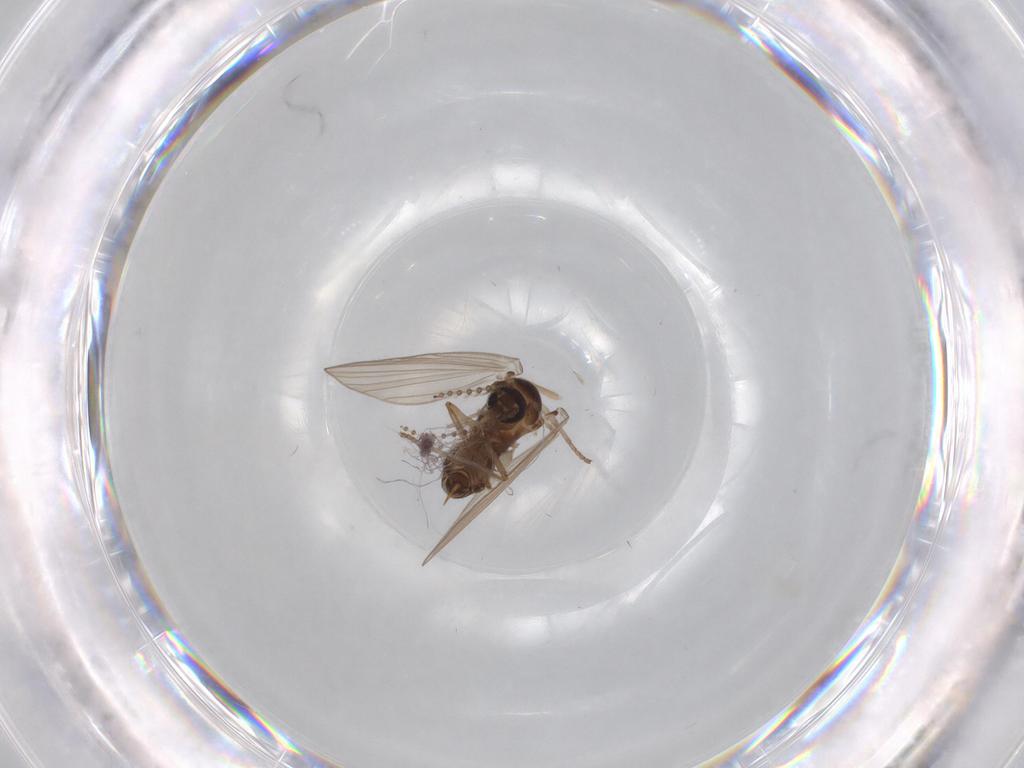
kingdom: Animalia
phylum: Arthropoda
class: Insecta
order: Diptera
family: Psychodidae
